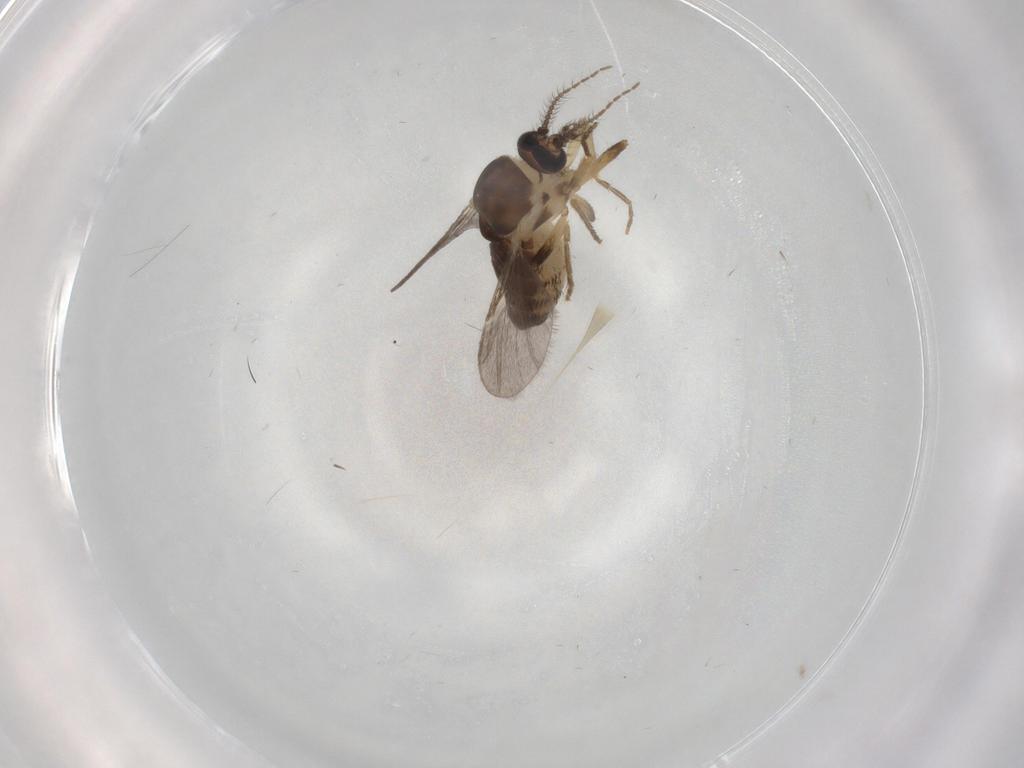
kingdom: Animalia
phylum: Arthropoda
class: Insecta
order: Diptera
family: Ceratopogonidae
